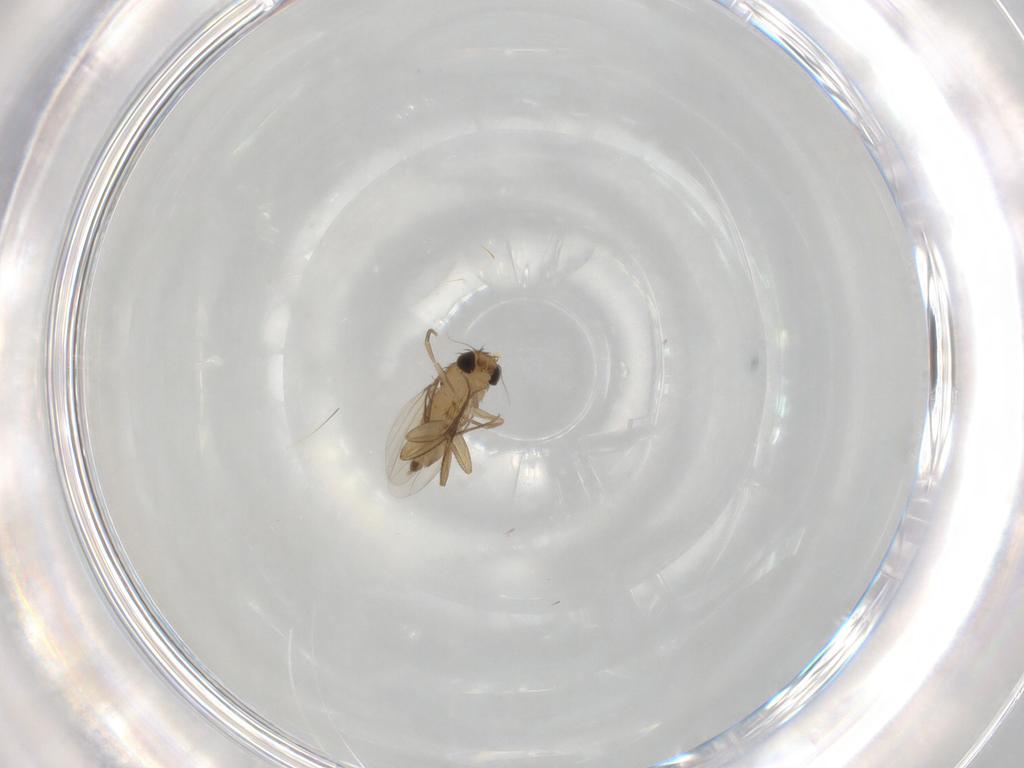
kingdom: Animalia
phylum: Arthropoda
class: Insecta
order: Diptera
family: Phoridae
